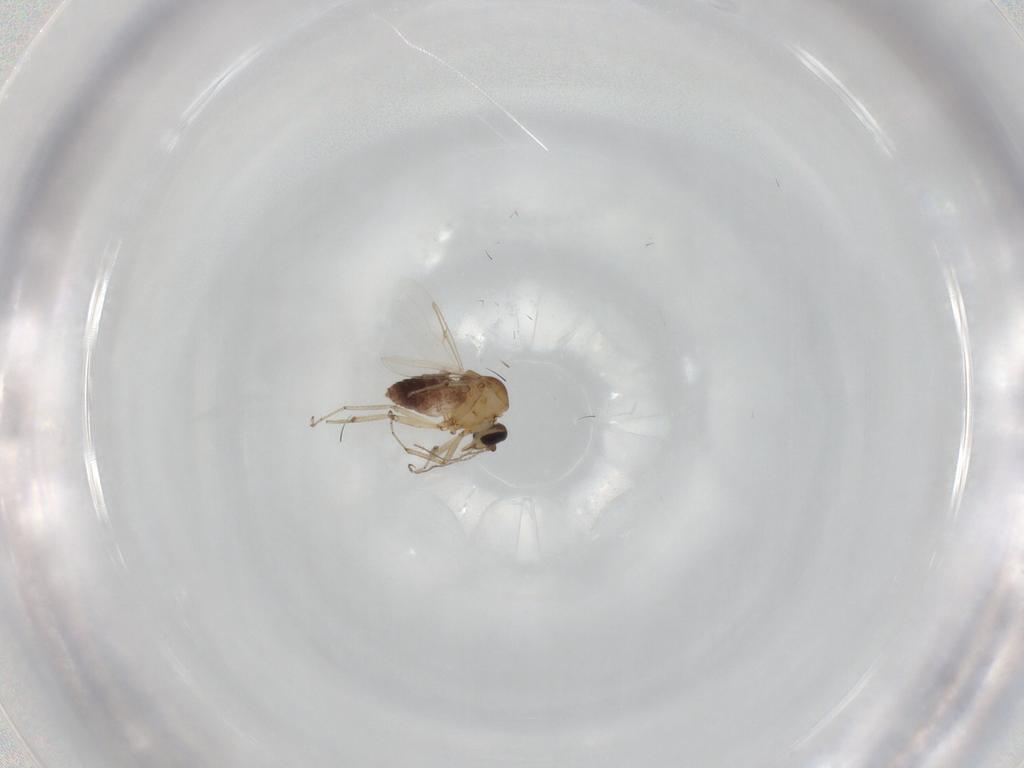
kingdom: Animalia
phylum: Arthropoda
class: Insecta
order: Diptera
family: Ceratopogonidae
